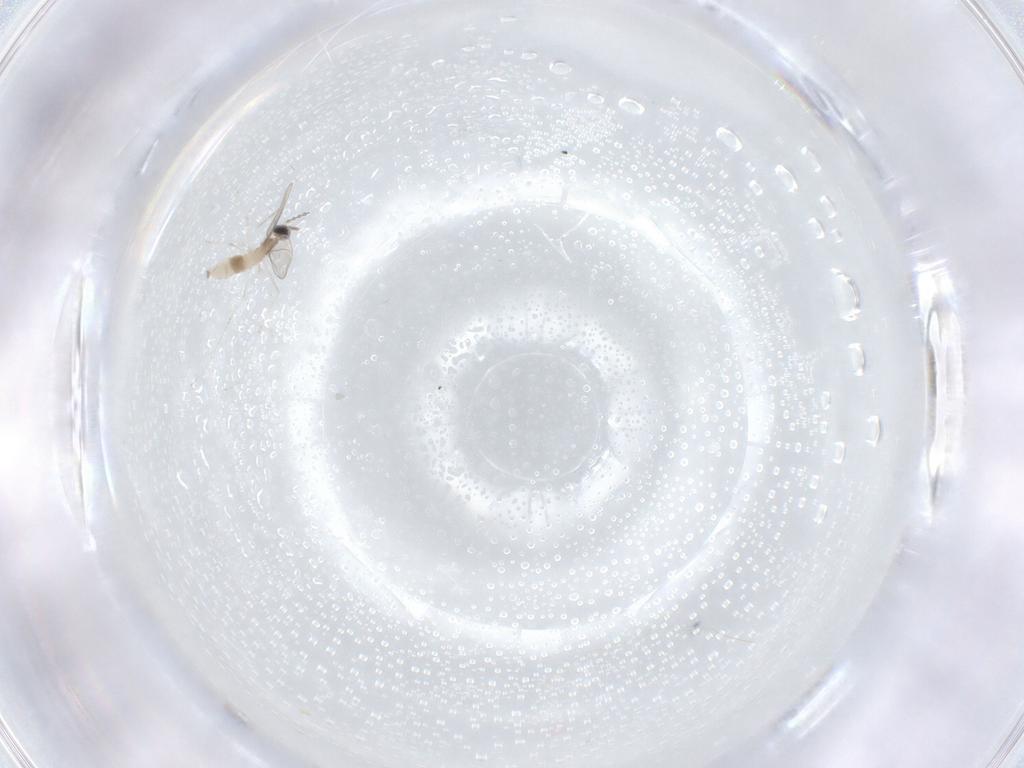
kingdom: Animalia
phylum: Arthropoda
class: Insecta
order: Diptera
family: Cecidomyiidae
